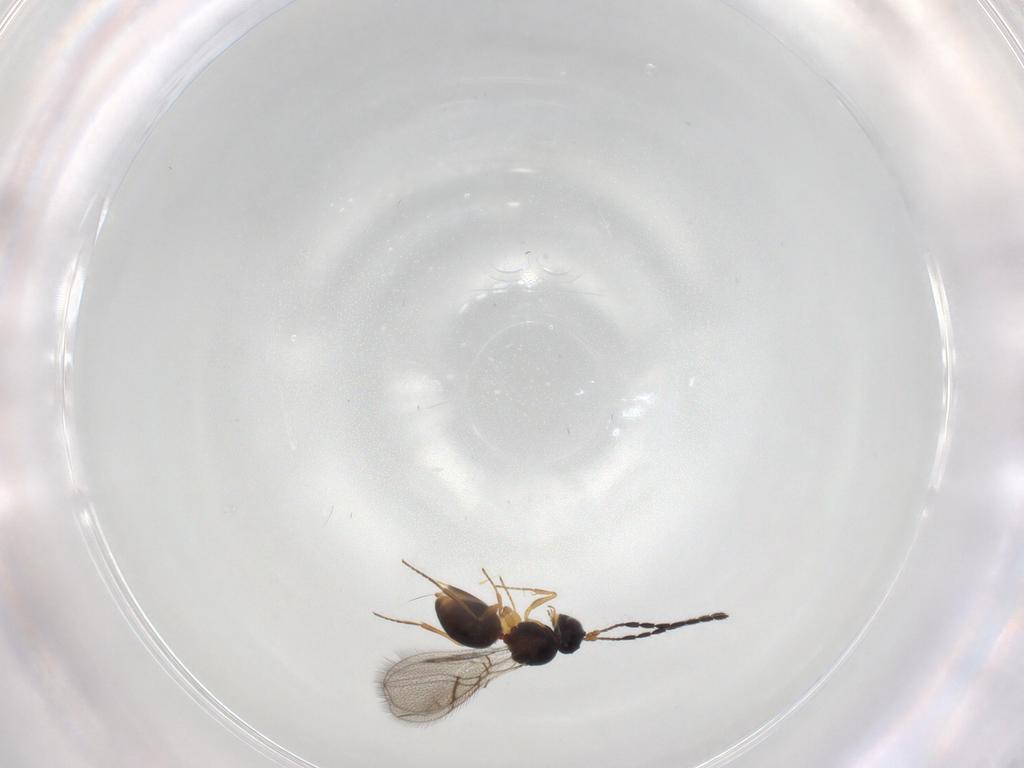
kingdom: Animalia
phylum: Arthropoda
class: Insecta
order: Hymenoptera
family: Figitidae
